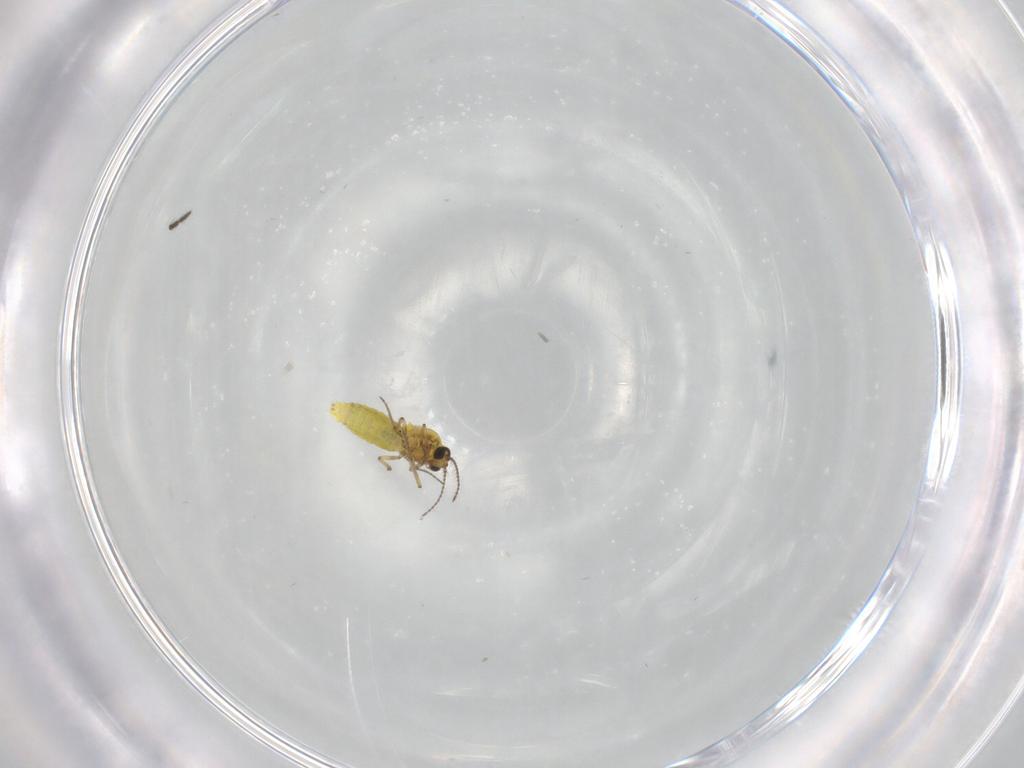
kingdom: Animalia
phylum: Arthropoda
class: Insecta
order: Diptera
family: Ceratopogonidae
